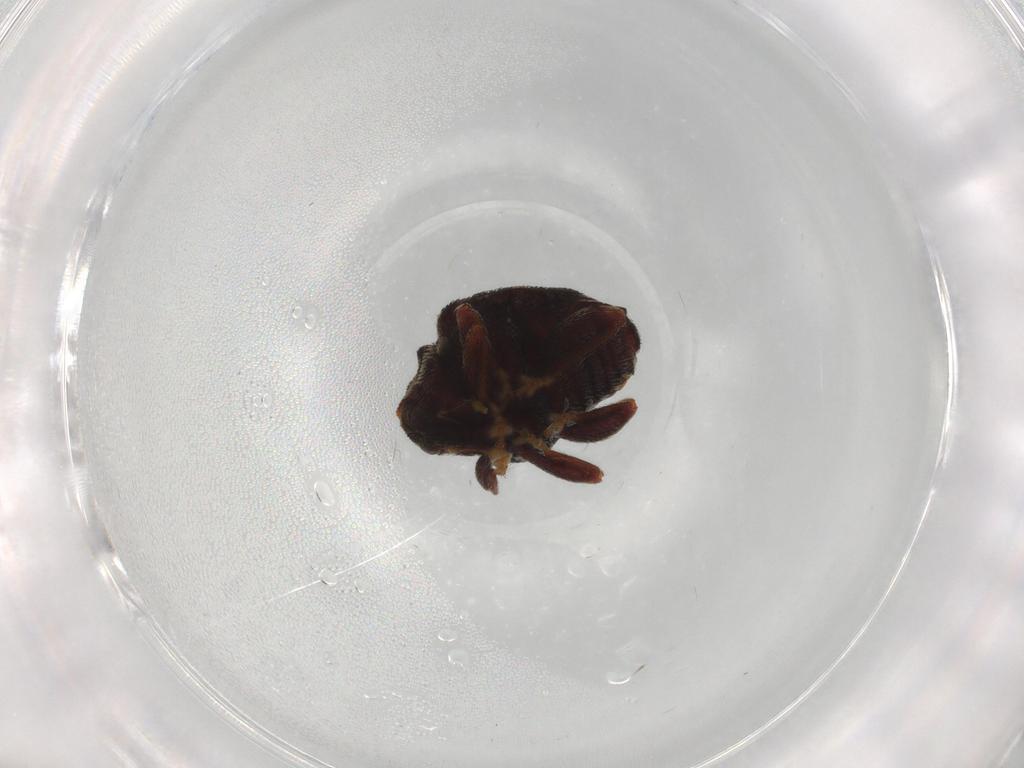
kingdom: Animalia
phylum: Arthropoda
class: Insecta
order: Coleoptera
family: Curculionidae
